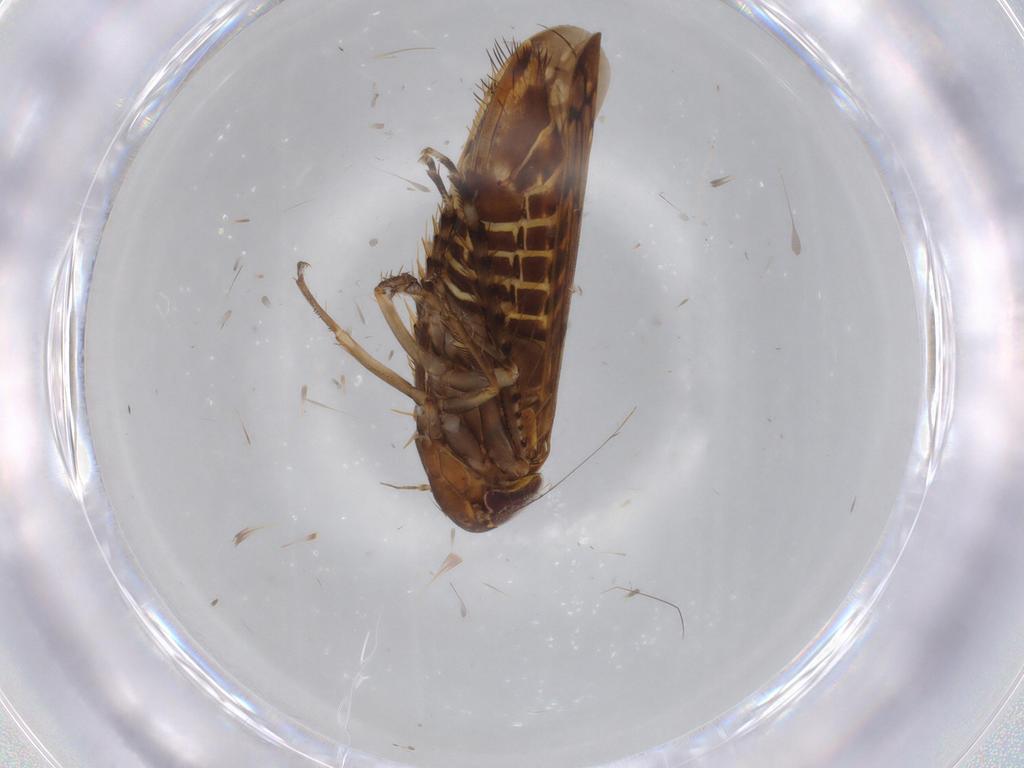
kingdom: Animalia
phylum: Arthropoda
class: Insecta
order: Hemiptera
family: Cicadellidae
